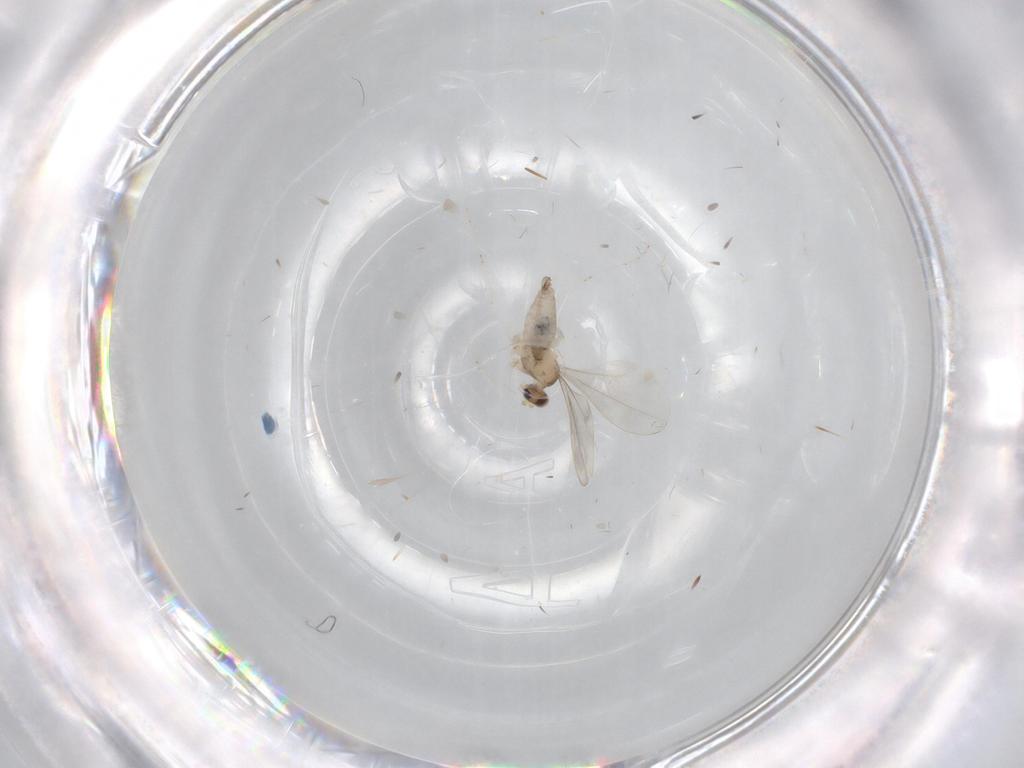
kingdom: Animalia
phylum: Arthropoda
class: Insecta
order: Diptera
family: Cecidomyiidae
